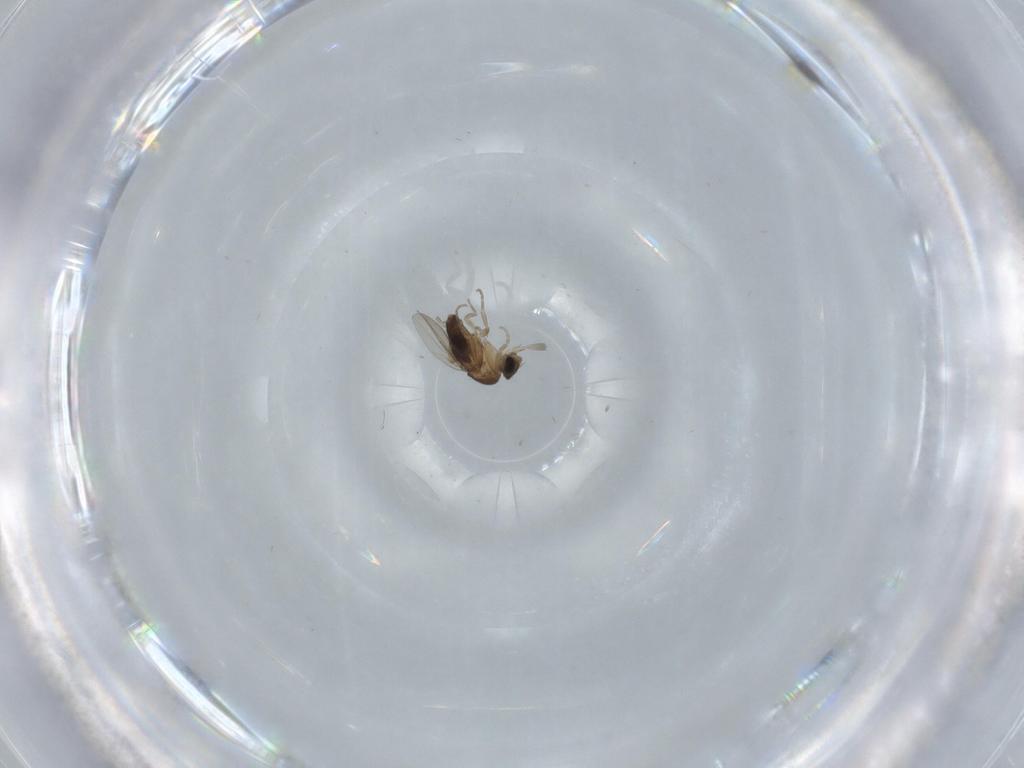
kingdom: Animalia
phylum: Arthropoda
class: Insecta
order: Diptera
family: Phoridae
